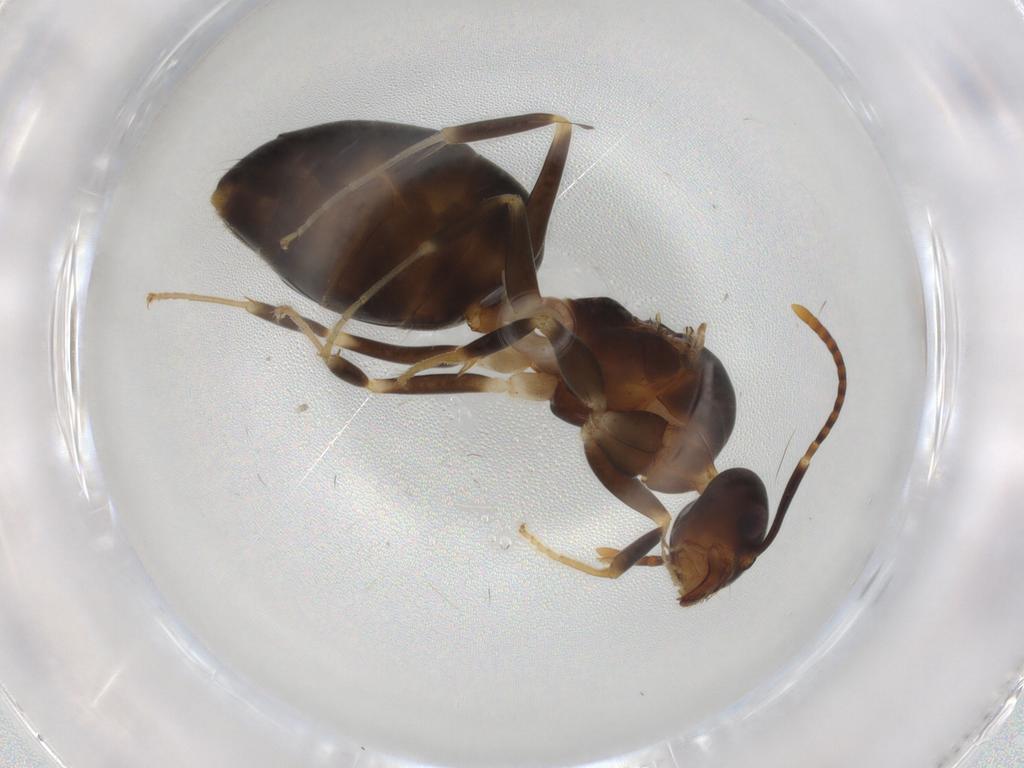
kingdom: Animalia
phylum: Arthropoda
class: Insecta
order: Hymenoptera
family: Formicidae
